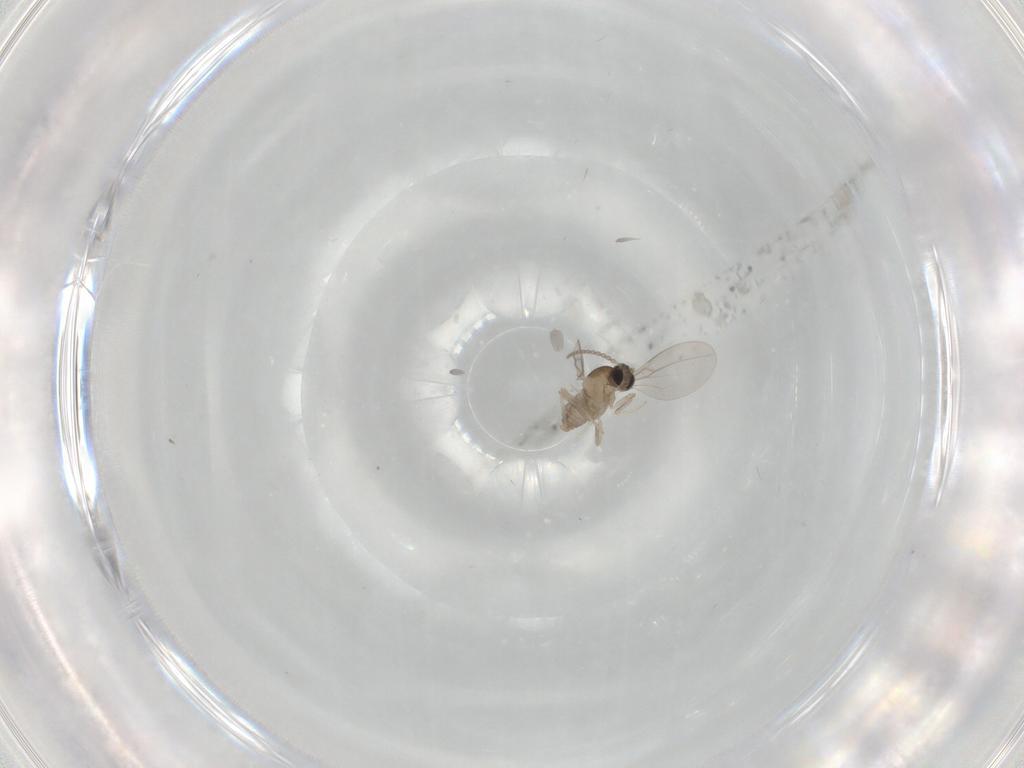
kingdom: Animalia
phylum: Arthropoda
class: Insecta
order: Diptera
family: Cecidomyiidae
